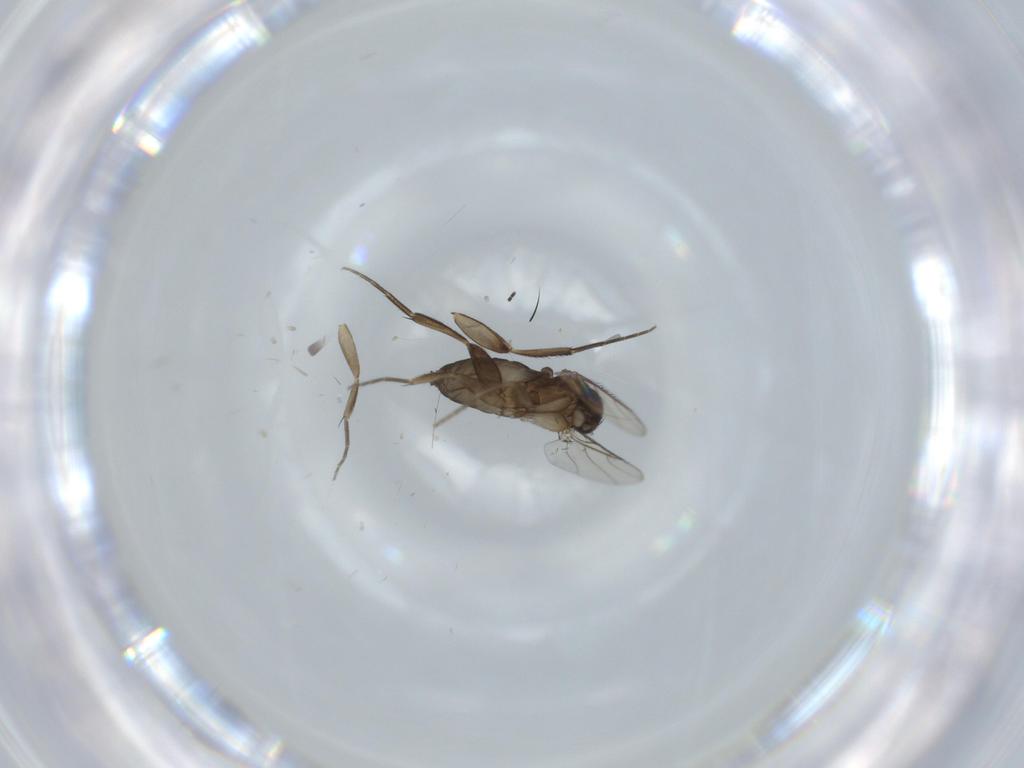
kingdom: Animalia
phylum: Arthropoda
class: Insecta
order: Diptera
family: Phoridae
